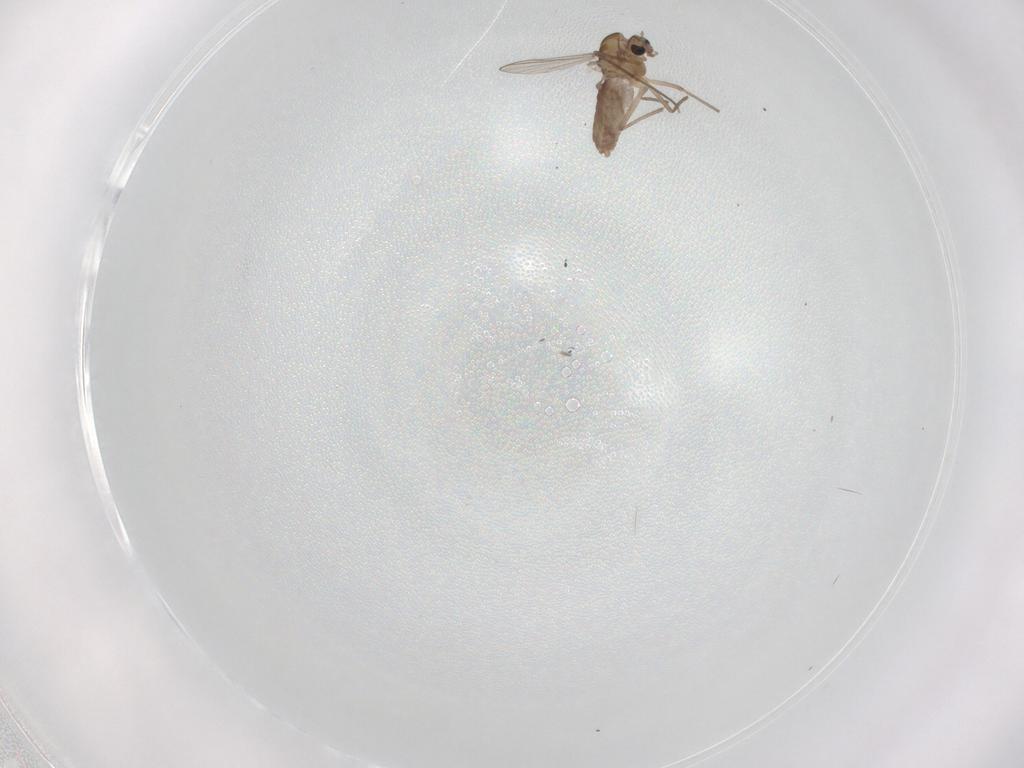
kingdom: Animalia
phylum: Arthropoda
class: Insecta
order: Diptera
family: Chironomidae
